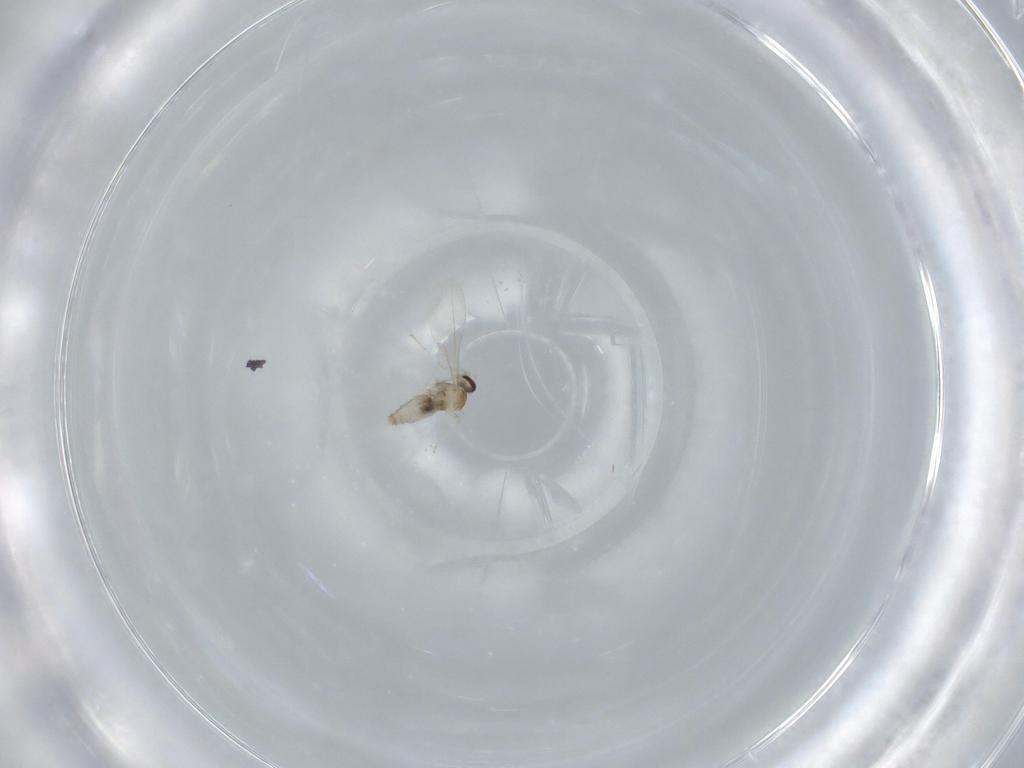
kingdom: Animalia
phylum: Arthropoda
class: Insecta
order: Diptera
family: Cecidomyiidae
